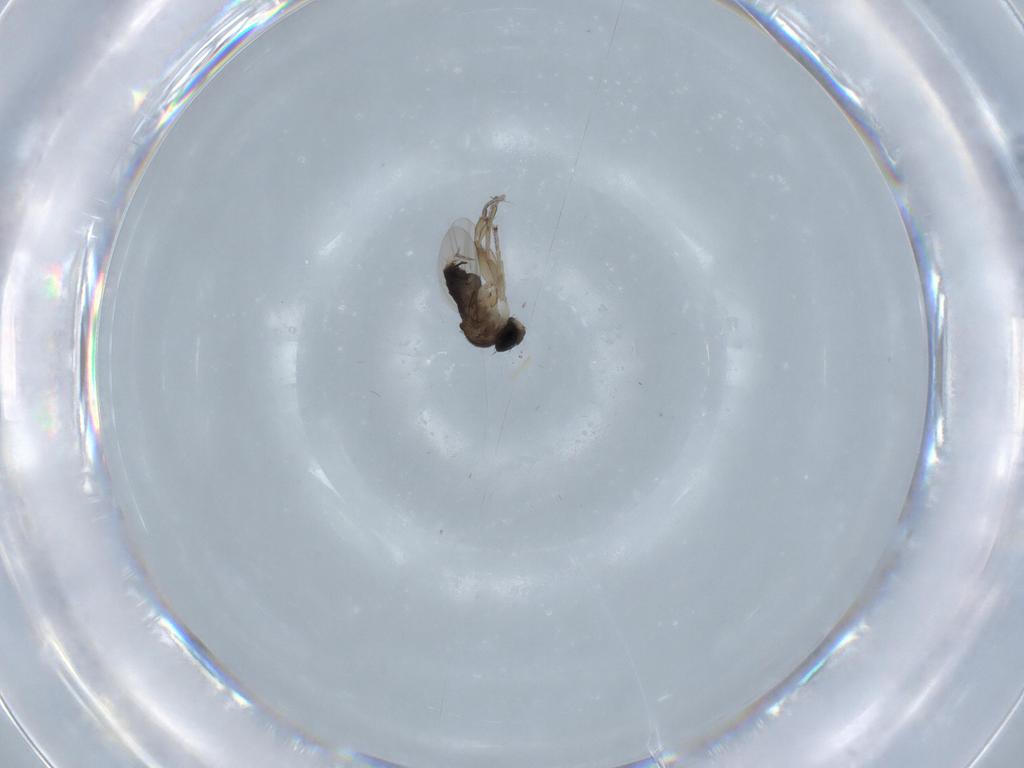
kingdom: Animalia
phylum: Arthropoda
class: Insecta
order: Diptera
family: Phoridae
